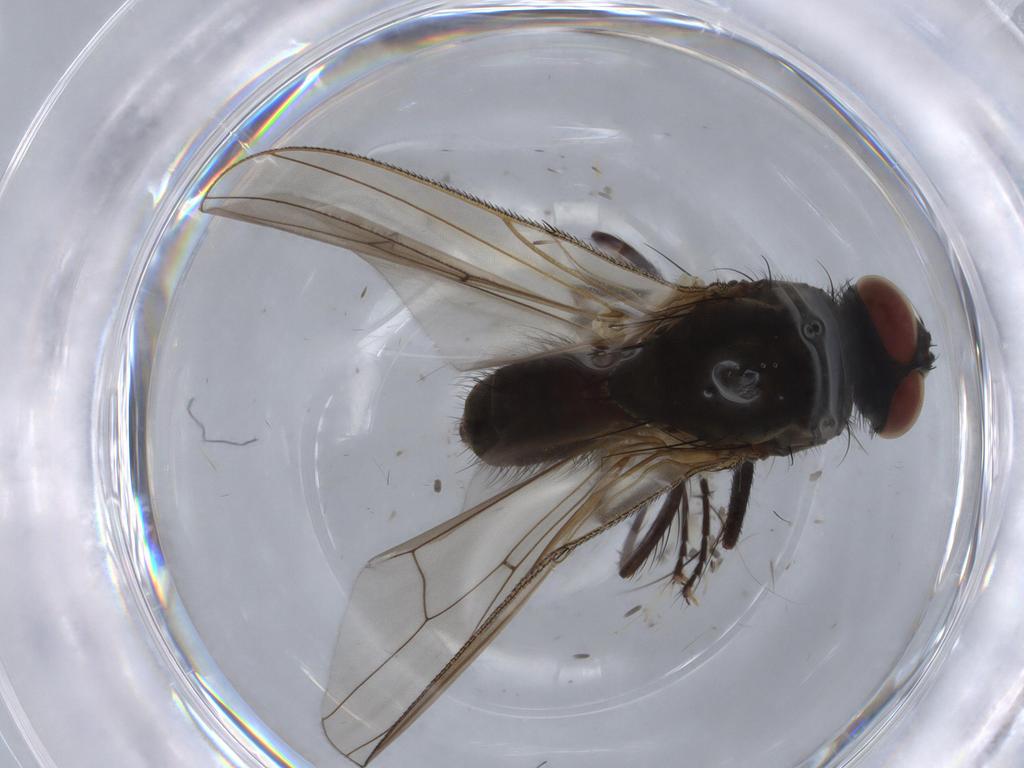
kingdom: Animalia
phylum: Arthropoda
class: Insecta
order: Diptera
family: Anthomyiidae
